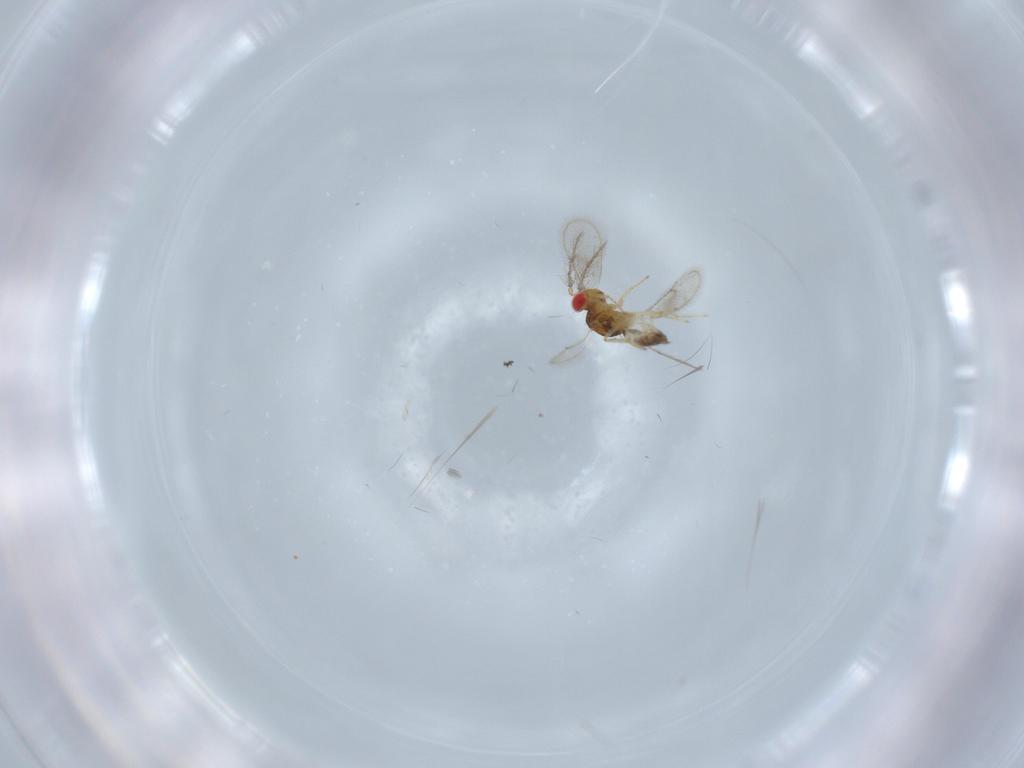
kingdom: Animalia
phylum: Arthropoda
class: Insecta
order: Hymenoptera
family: Eulophidae
